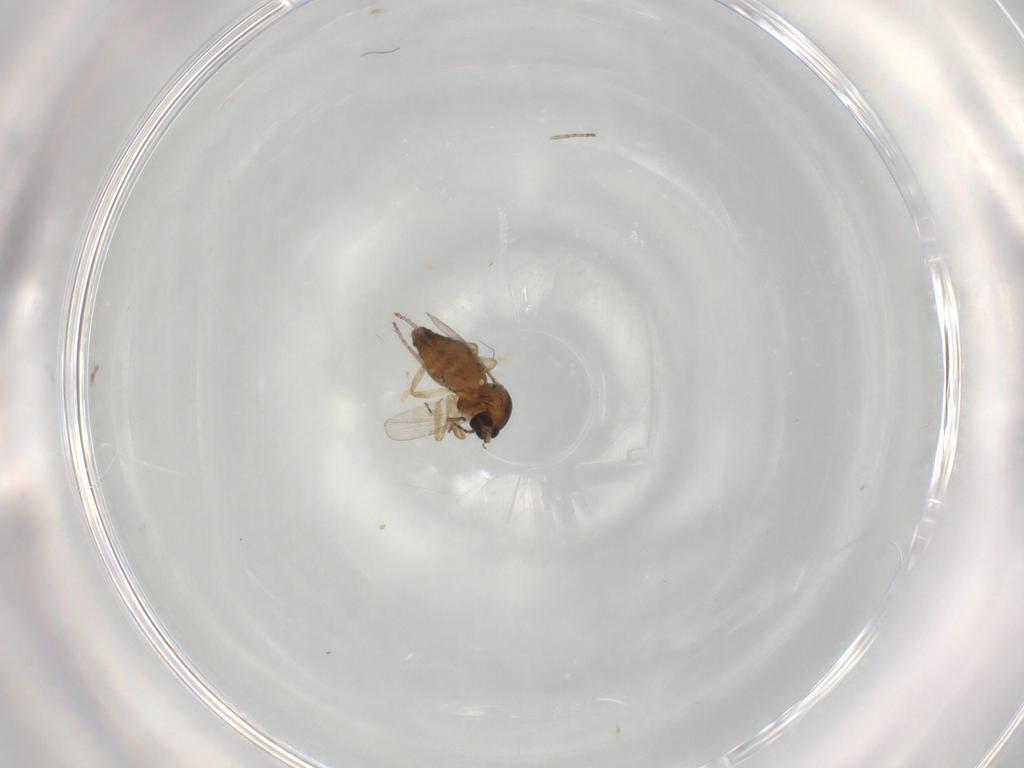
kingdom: Animalia
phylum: Arthropoda
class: Insecta
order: Diptera
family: Ceratopogonidae
